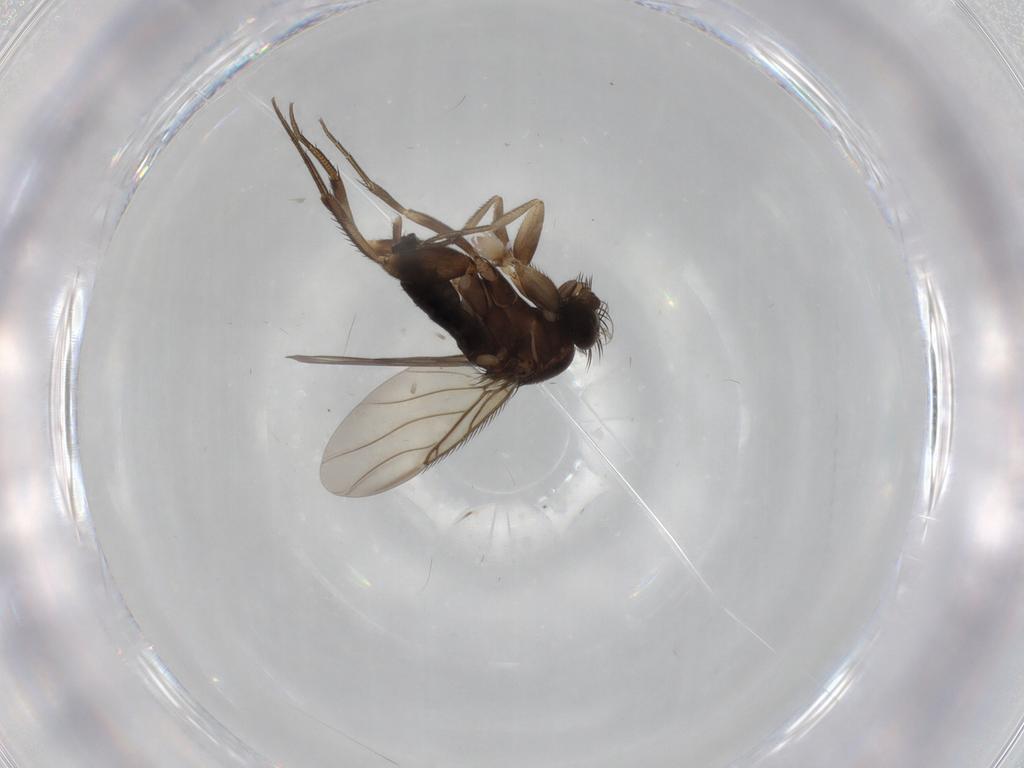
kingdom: Animalia
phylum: Arthropoda
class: Insecta
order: Diptera
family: Phoridae
